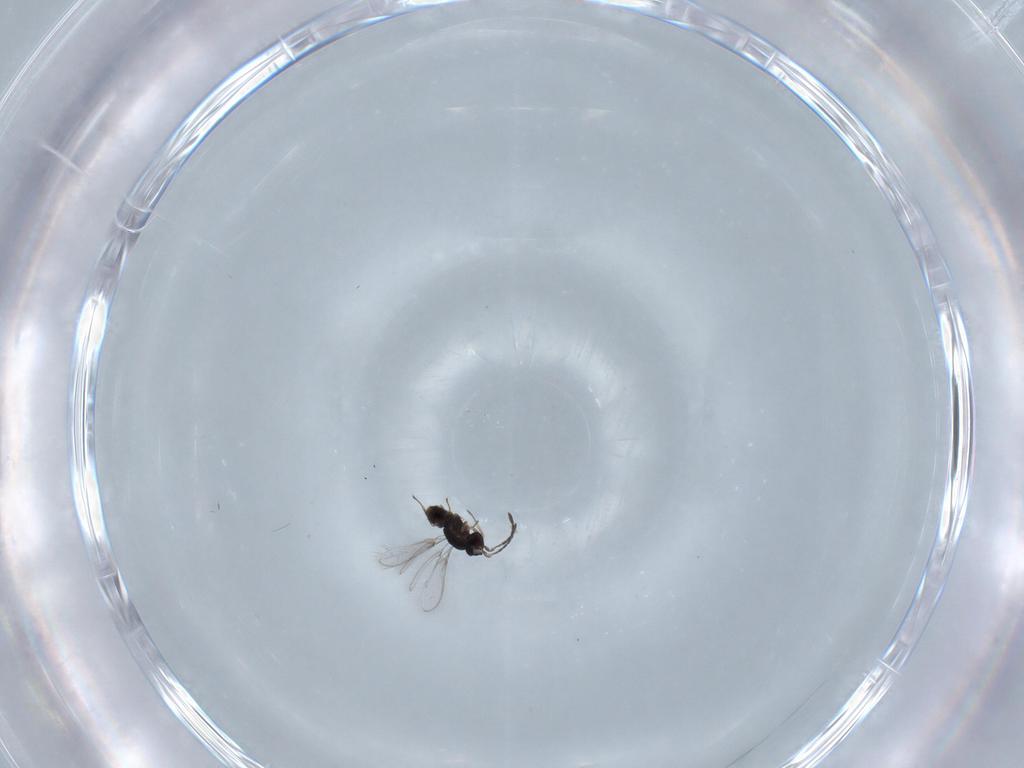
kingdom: Animalia
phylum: Arthropoda
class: Insecta
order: Hymenoptera
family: Mymaridae
